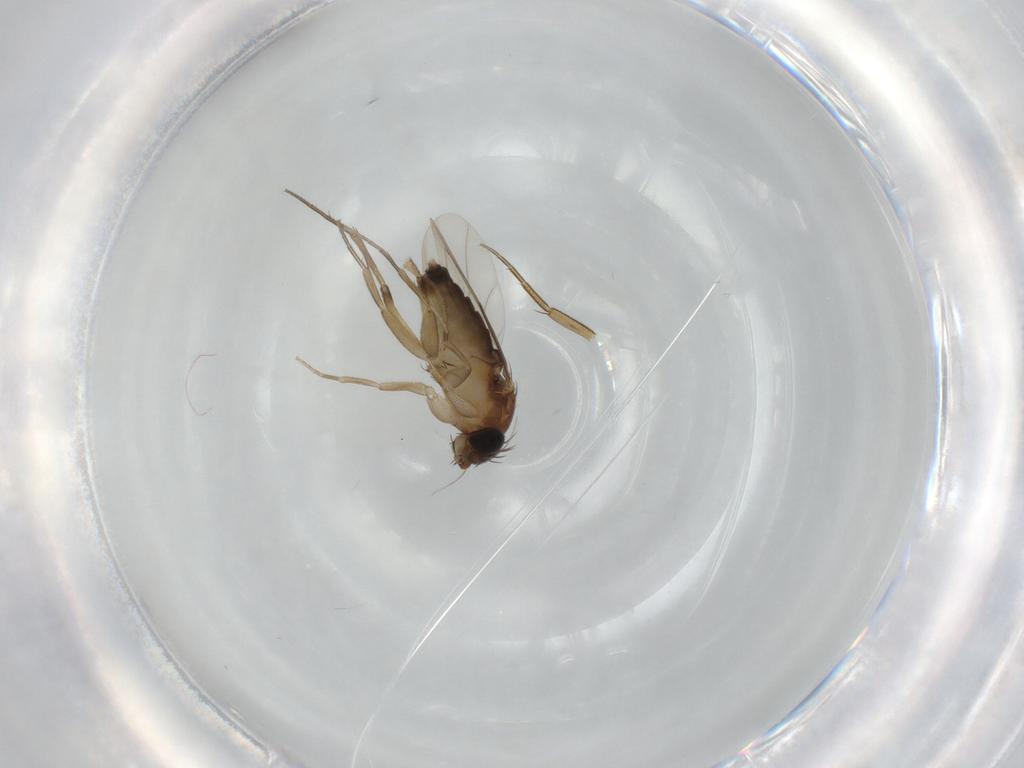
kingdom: Animalia
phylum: Arthropoda
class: Insecta
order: Diptera
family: Phoridae
